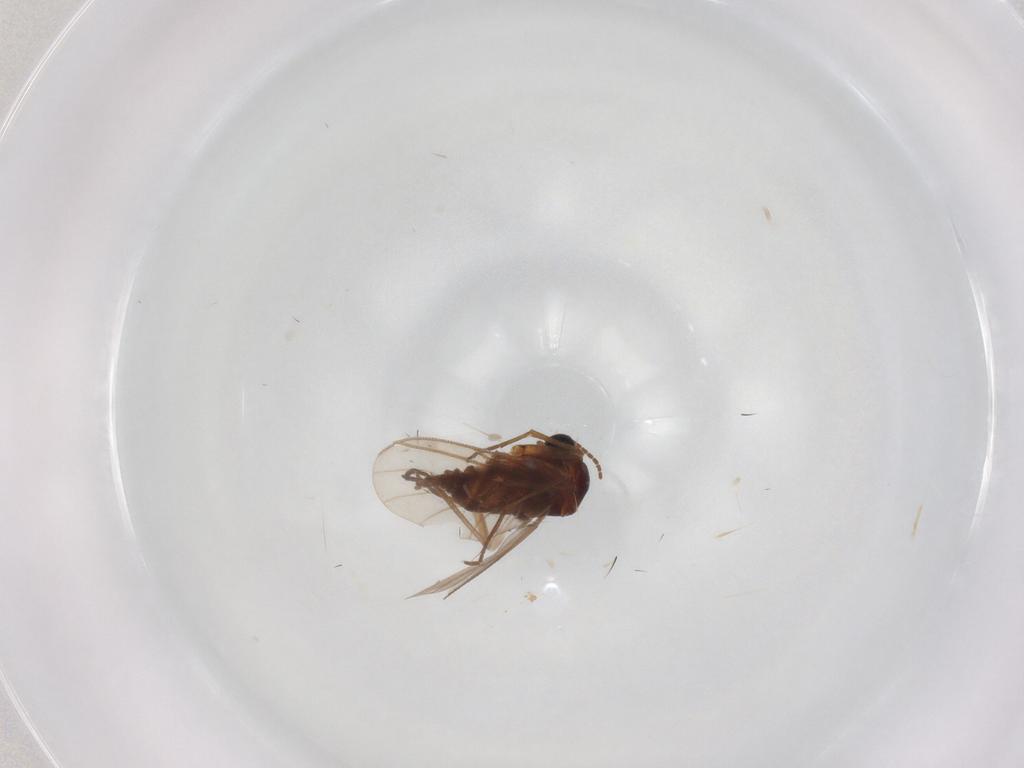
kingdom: Animalia
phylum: Arthropoda
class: Insecta
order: Diptera
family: Sciaridae
